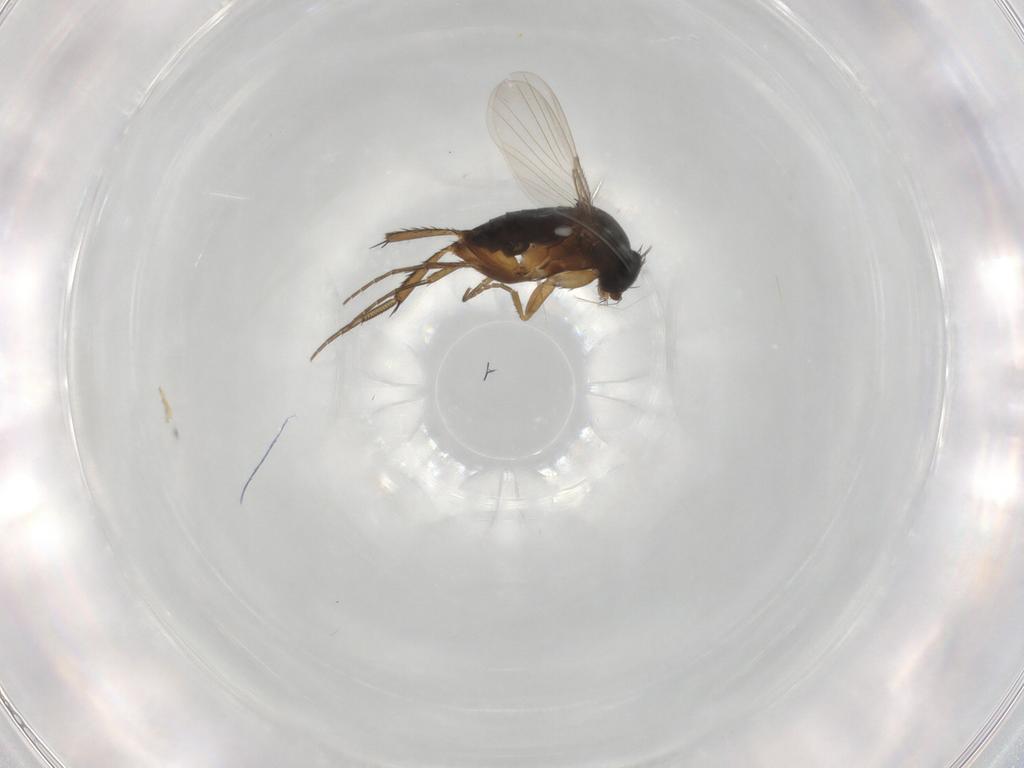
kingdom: Animalia
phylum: Arthropoda
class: Insecta
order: Diptera
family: Phoridae
